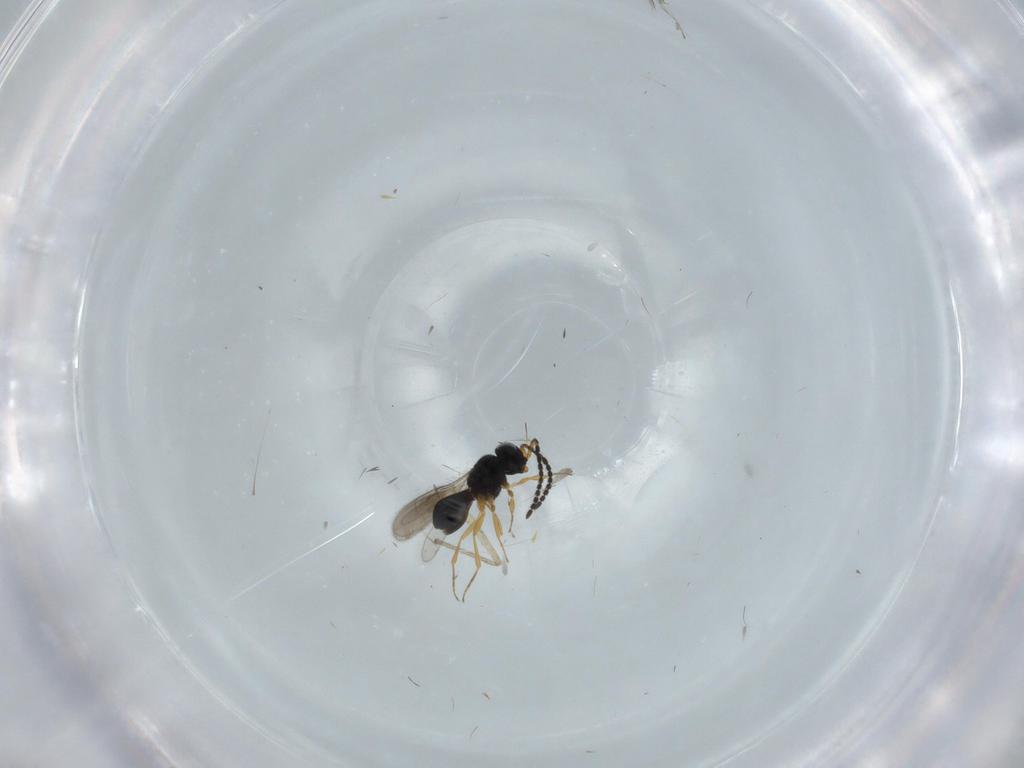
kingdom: Animalia
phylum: Arthropoda
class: Insecta
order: Hymenoptera
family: Scelionidae
